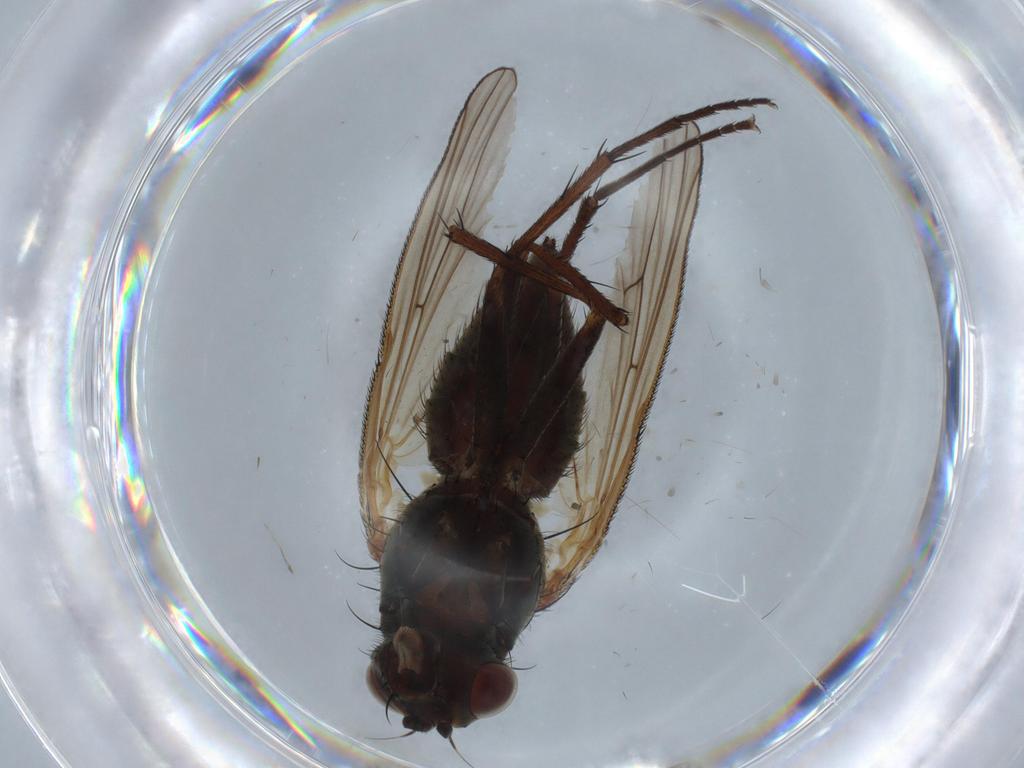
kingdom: Animalia
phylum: Arthropoda
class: Insecta
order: Diptera
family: Anthomyiidae
